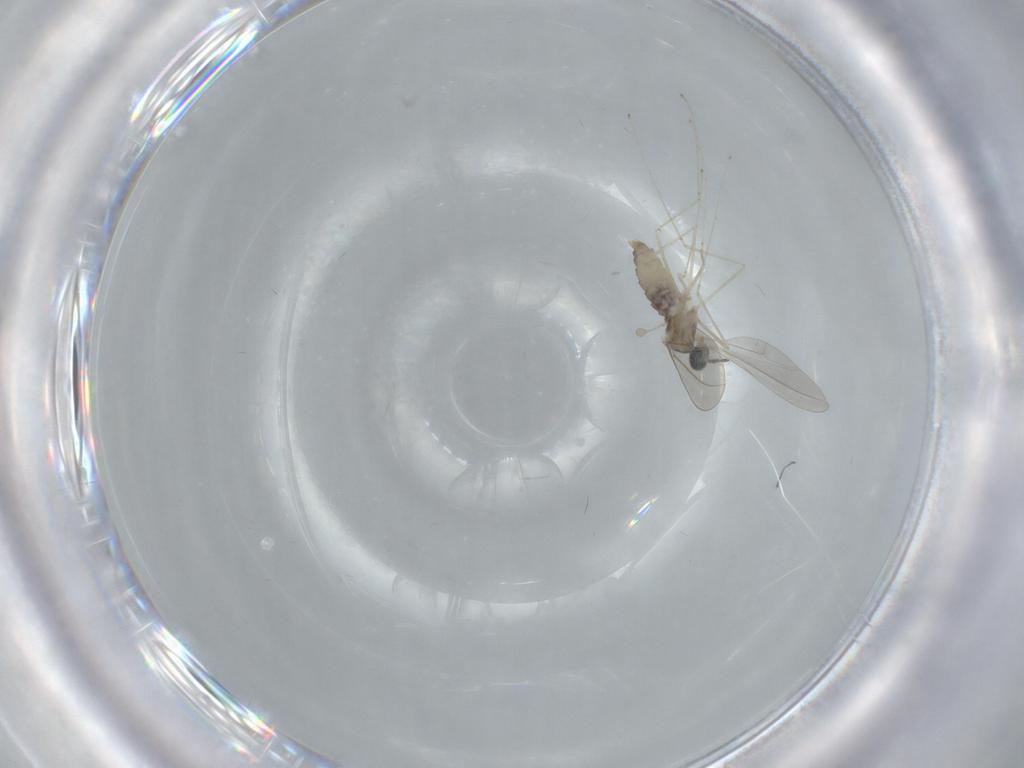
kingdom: Animalia
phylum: Arthropoda
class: Insecta
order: Diptera
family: Cecidomyiidae
